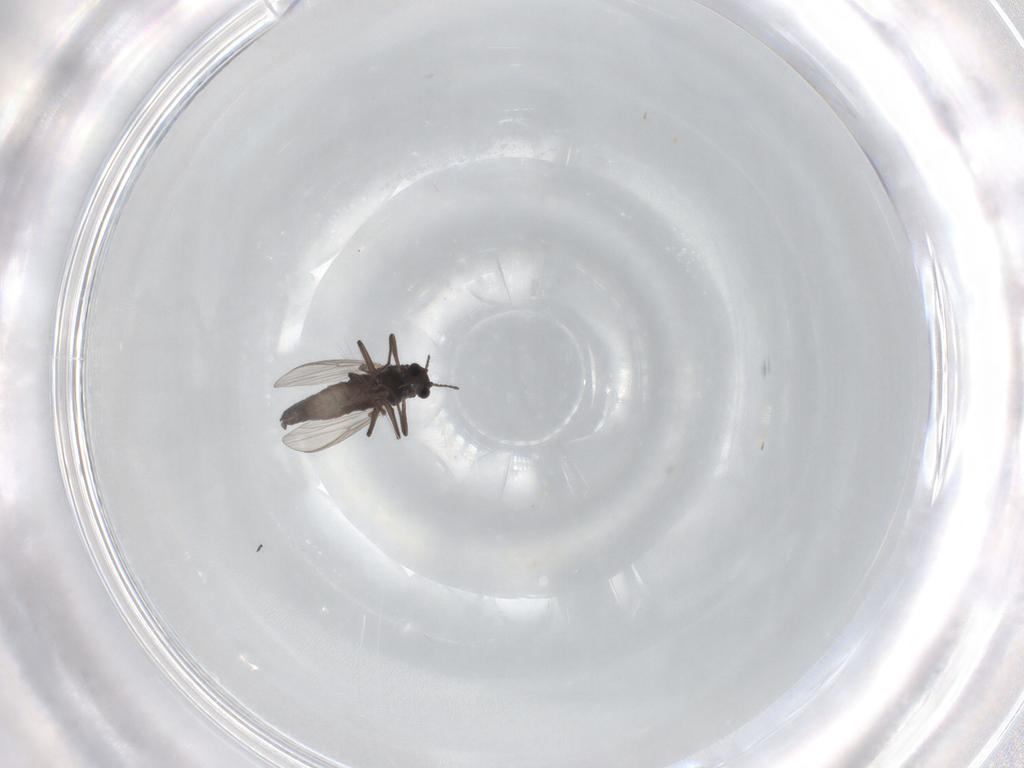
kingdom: Animalia
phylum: Arthropoda
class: Insecta
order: Diptera
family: Chironomidae
